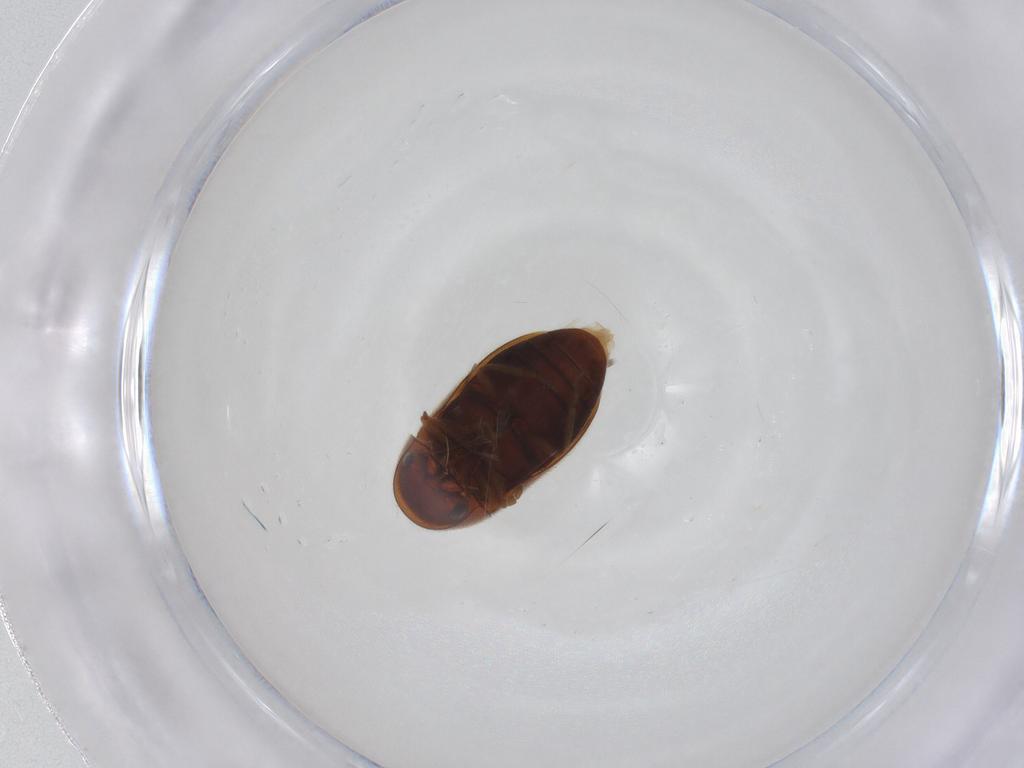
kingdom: Animalia
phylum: Arthropoda
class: Insecta
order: Coleoptera
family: Ptinidae
